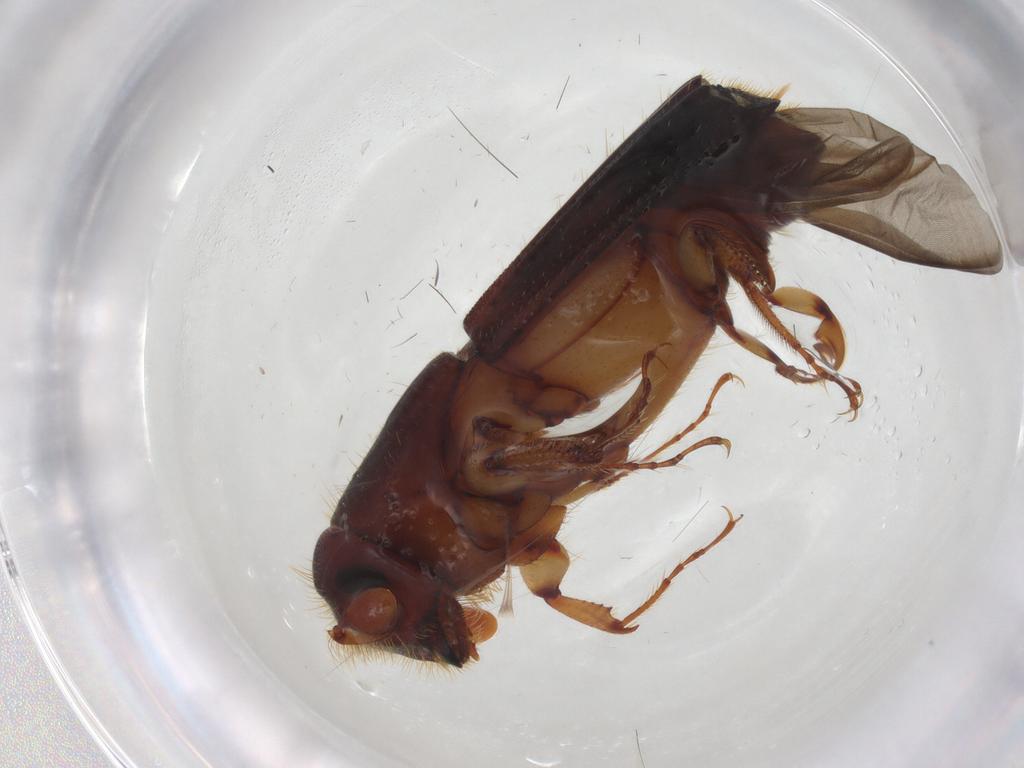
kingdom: Animalia
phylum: Arthropoda
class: Insecta
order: Coleoptera
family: Curculionidae
